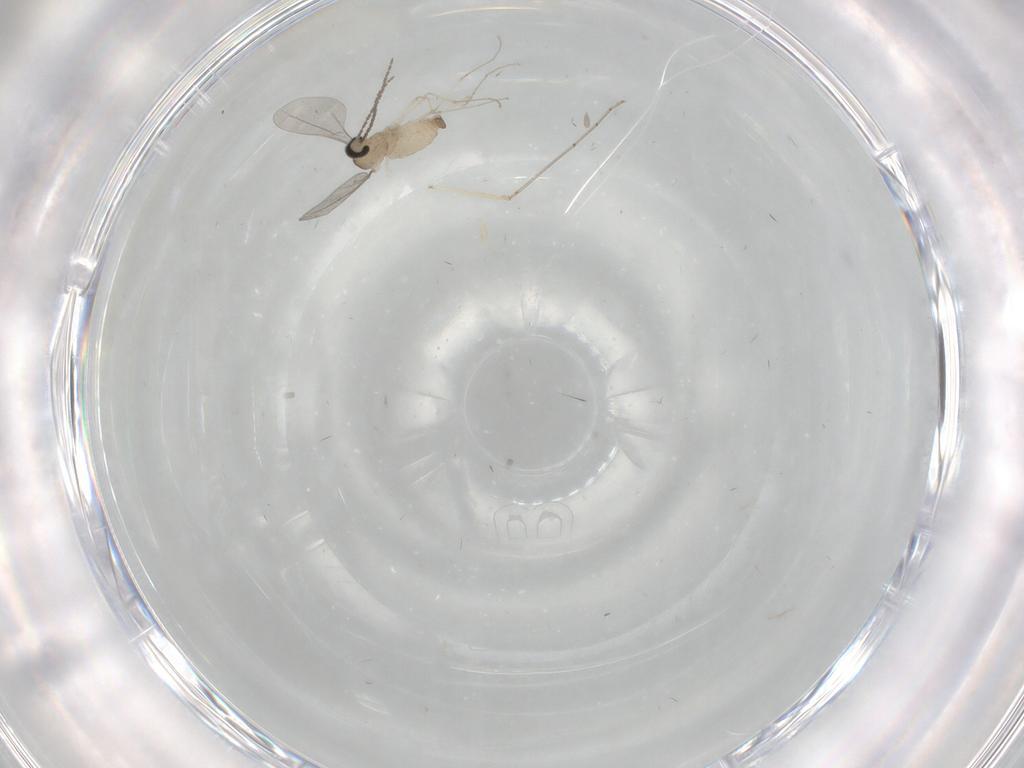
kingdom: Animalia
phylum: Arthropoda
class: Insecta
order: Diptera
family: Cecidomyiidae
